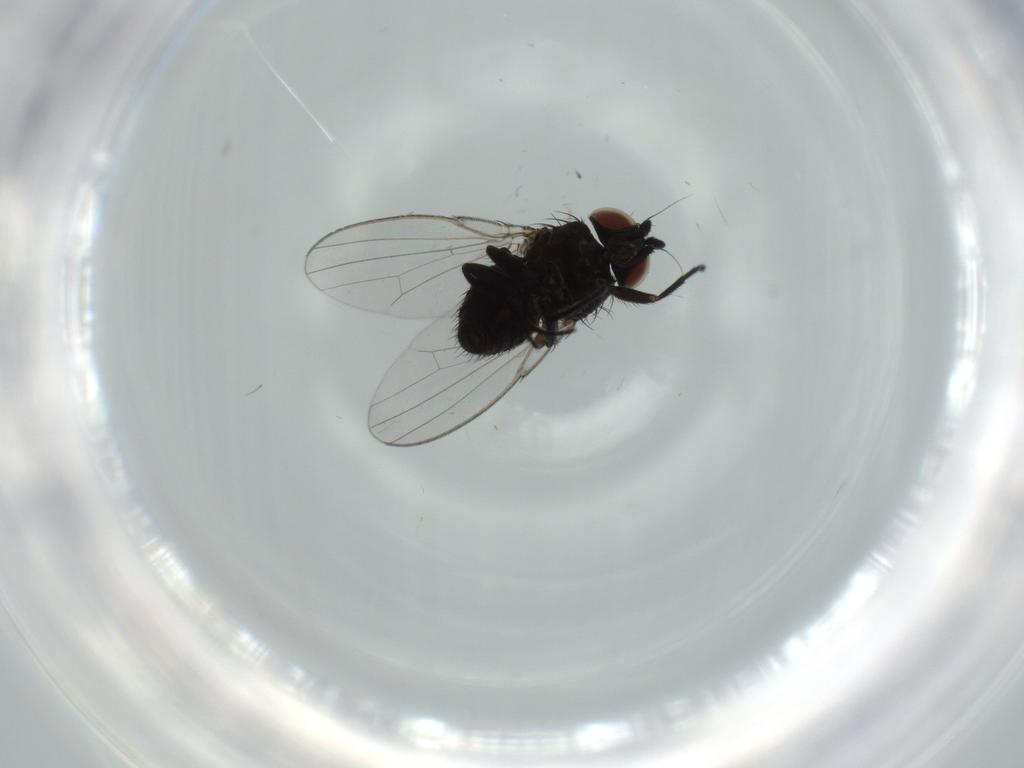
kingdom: Animalia
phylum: Arthropoda
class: Insecta
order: Diptera
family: Milichiidae
